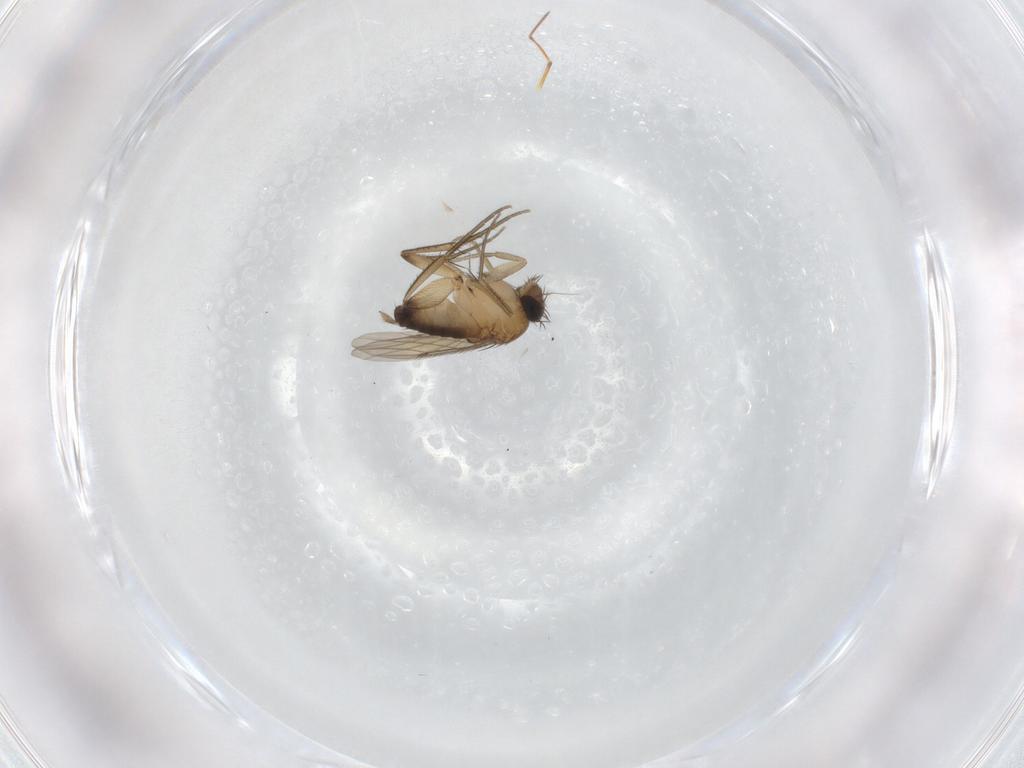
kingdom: Animalia
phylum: Arthropoda
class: Insecta
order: Diptera
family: Phoridae
